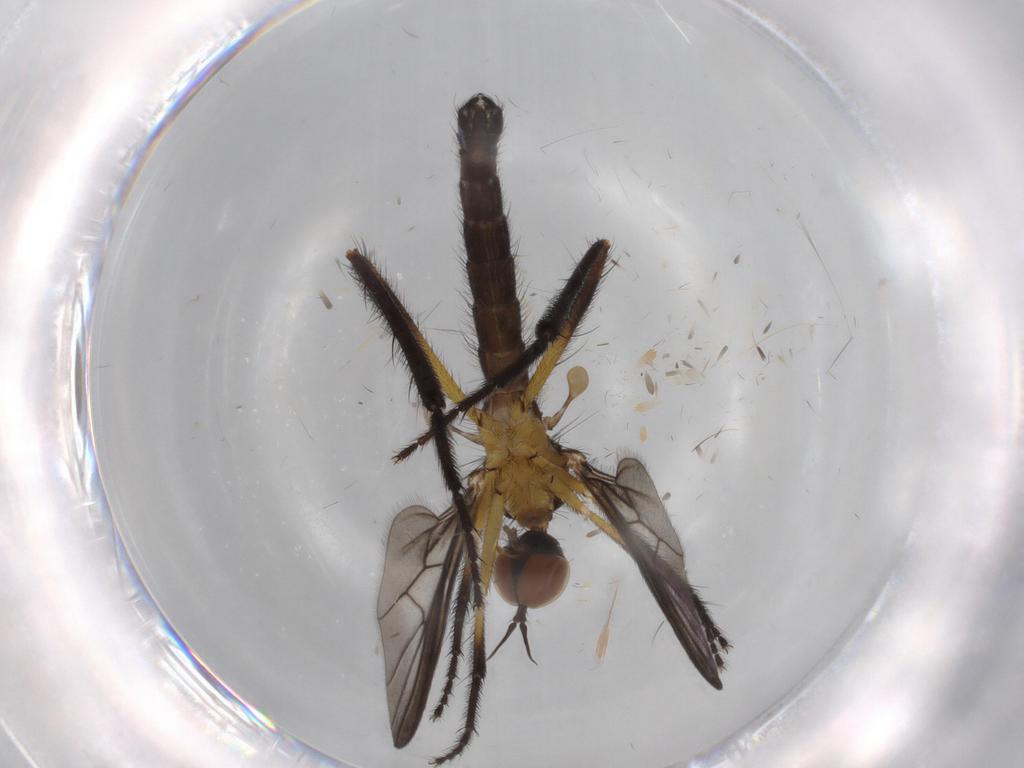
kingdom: Animalia
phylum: Arthropoda
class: Insecta
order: Diptera
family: Empididae
